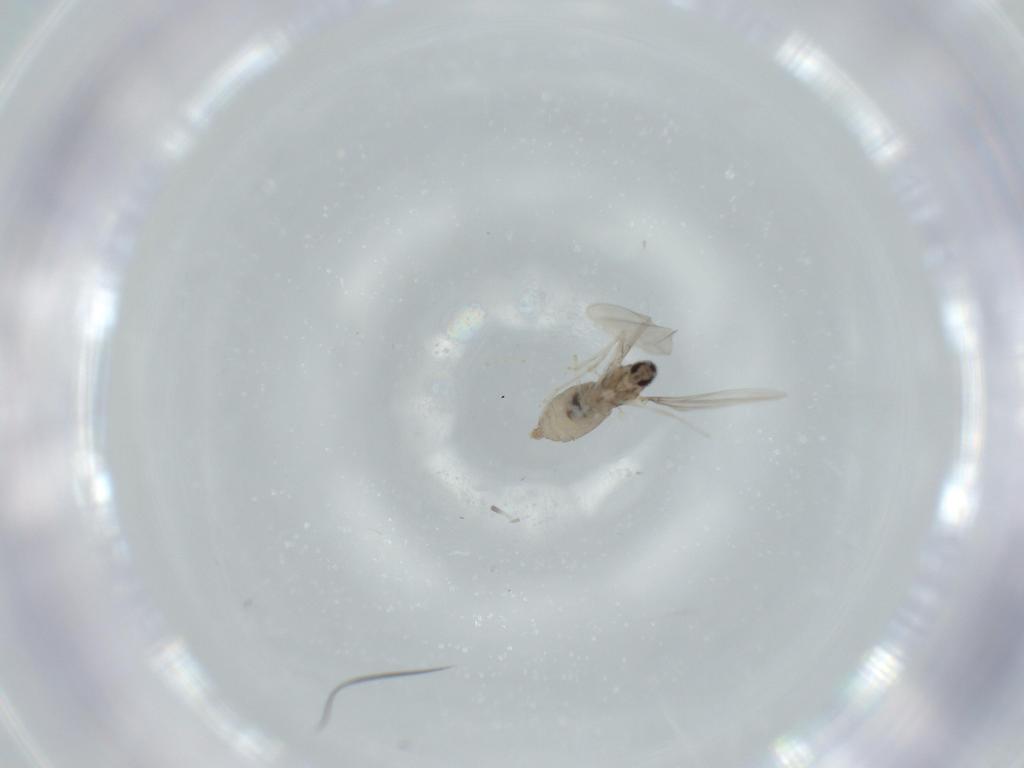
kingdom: Animalia
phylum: Arthropoda
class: Insecta
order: Diptera
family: Cecidomyiidae
